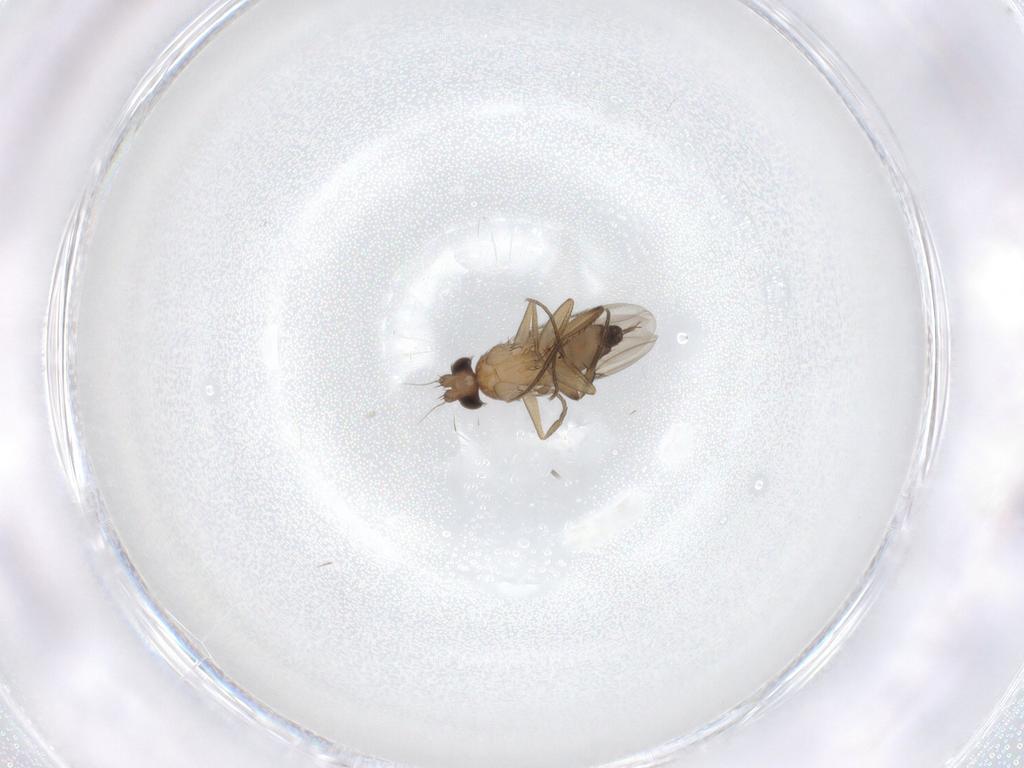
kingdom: Animalia
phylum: Arthropoda
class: Insecta
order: Diptera
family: Phoridae
